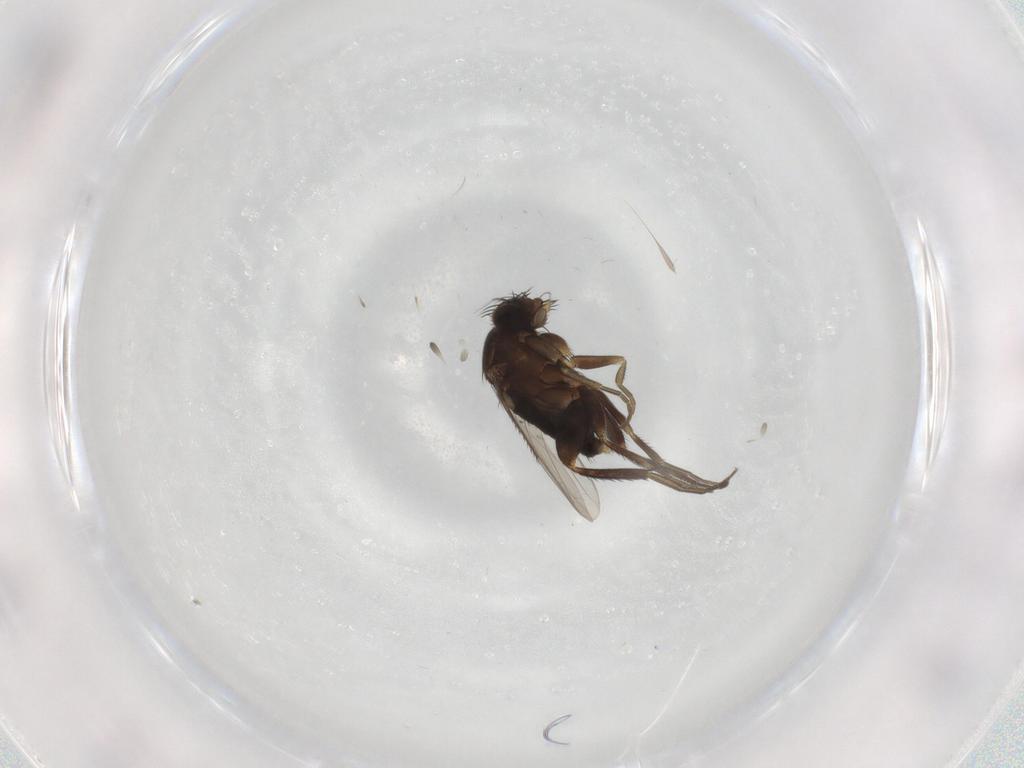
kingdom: Animalia
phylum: Arthropoda
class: Insecta
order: Diptera
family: Phoridae
